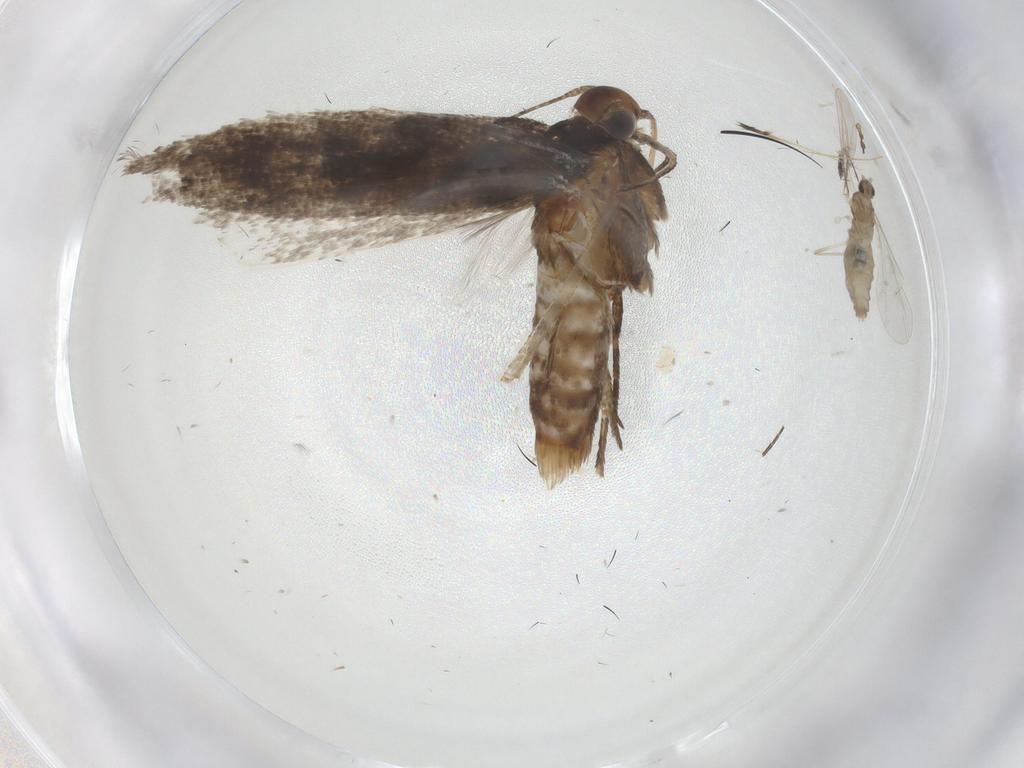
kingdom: Animalia
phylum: Arthropoda
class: Insecta
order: Lepidoptera
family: Gelechiidae
